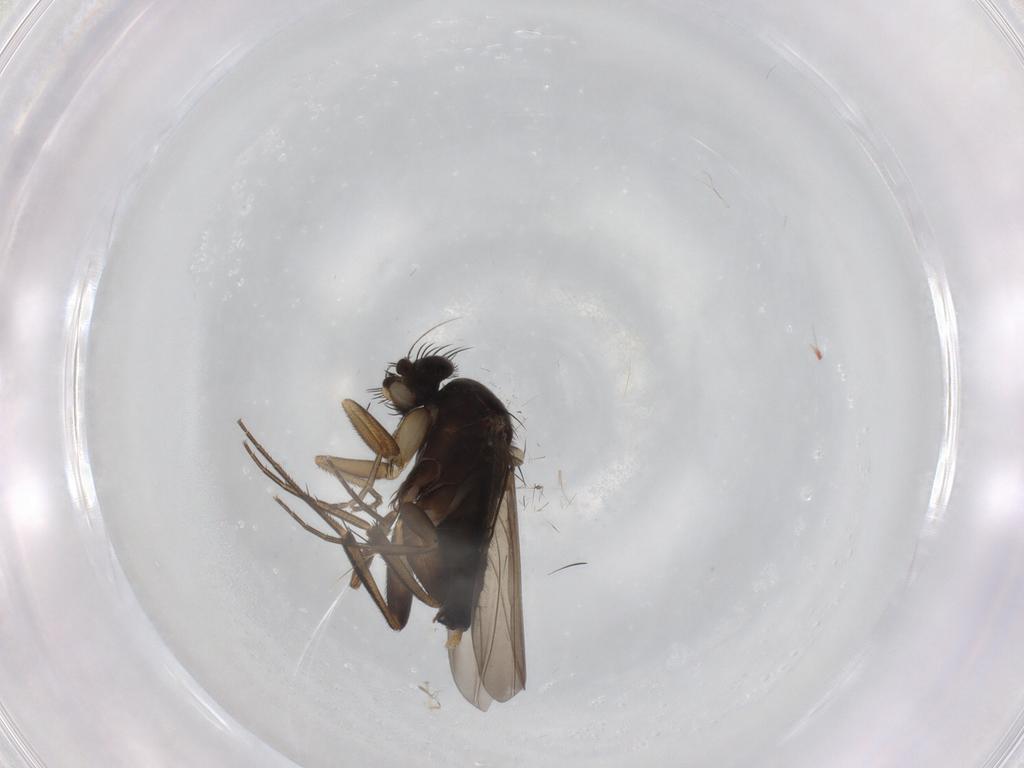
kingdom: Animalia
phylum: Arthropoda
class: Insecta
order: Diptera
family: Phoridae
